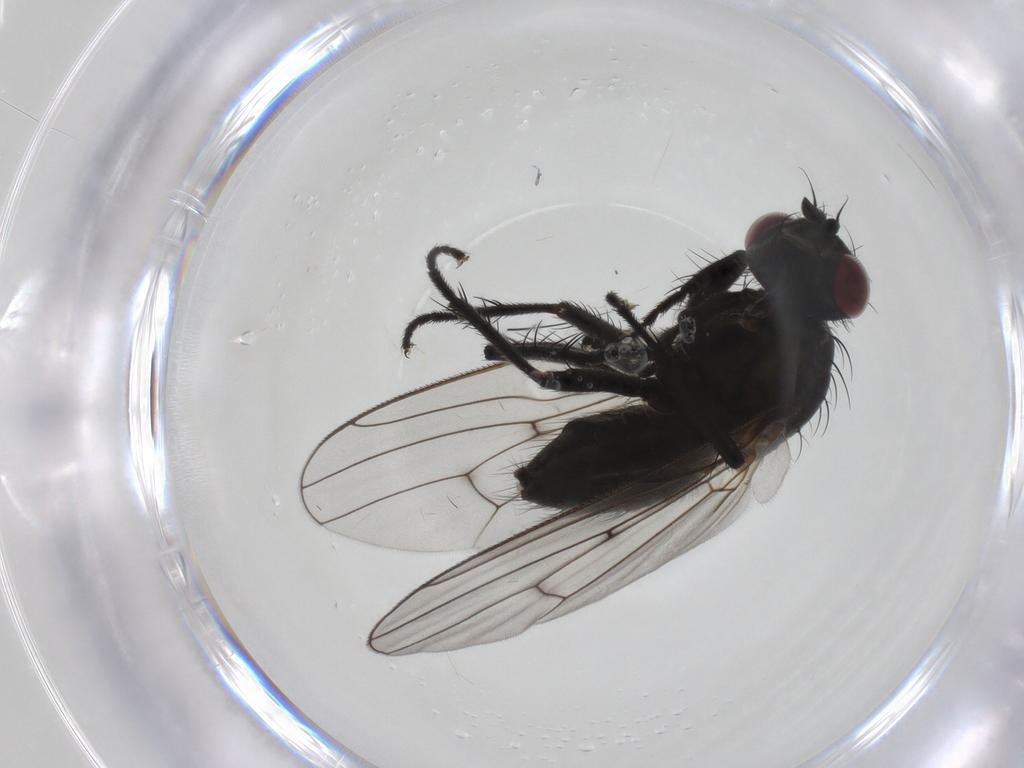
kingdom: Animalia
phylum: Arthropoda
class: Insecta
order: Diptera
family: Muscidae
